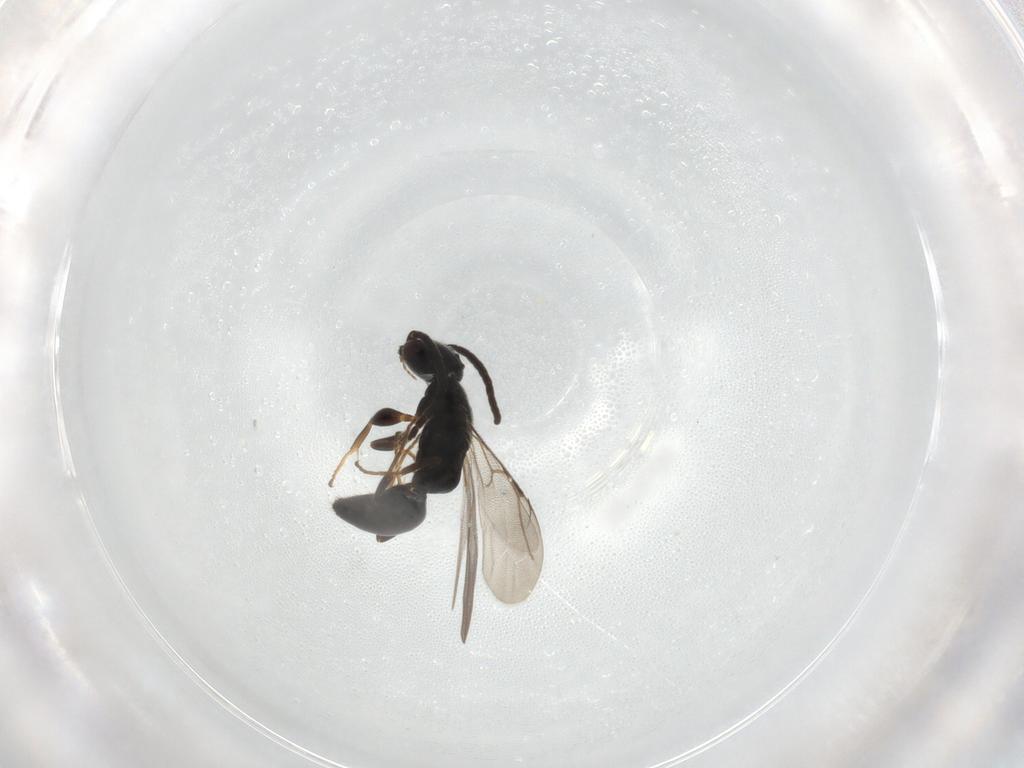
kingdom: Animalia
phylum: Arthropoda
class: Insecta
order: Hymenoptera
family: Bethylidae
